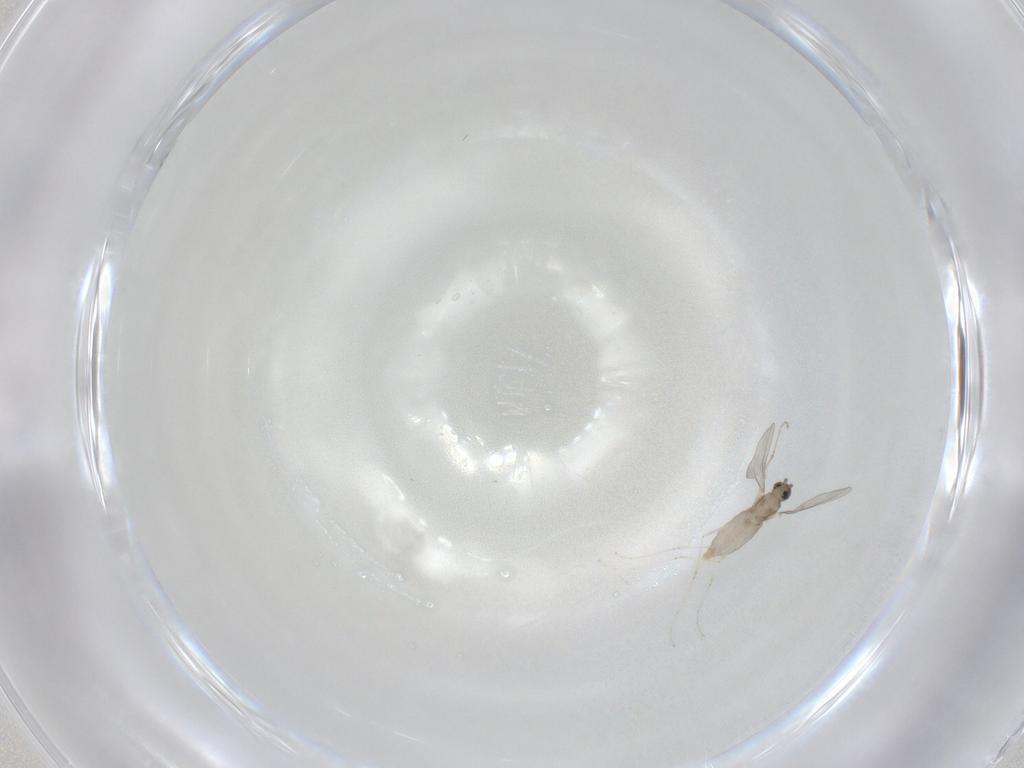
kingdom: Animalia
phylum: Arthropoda
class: Insecta
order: Diptera
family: Cecidomyiidae
